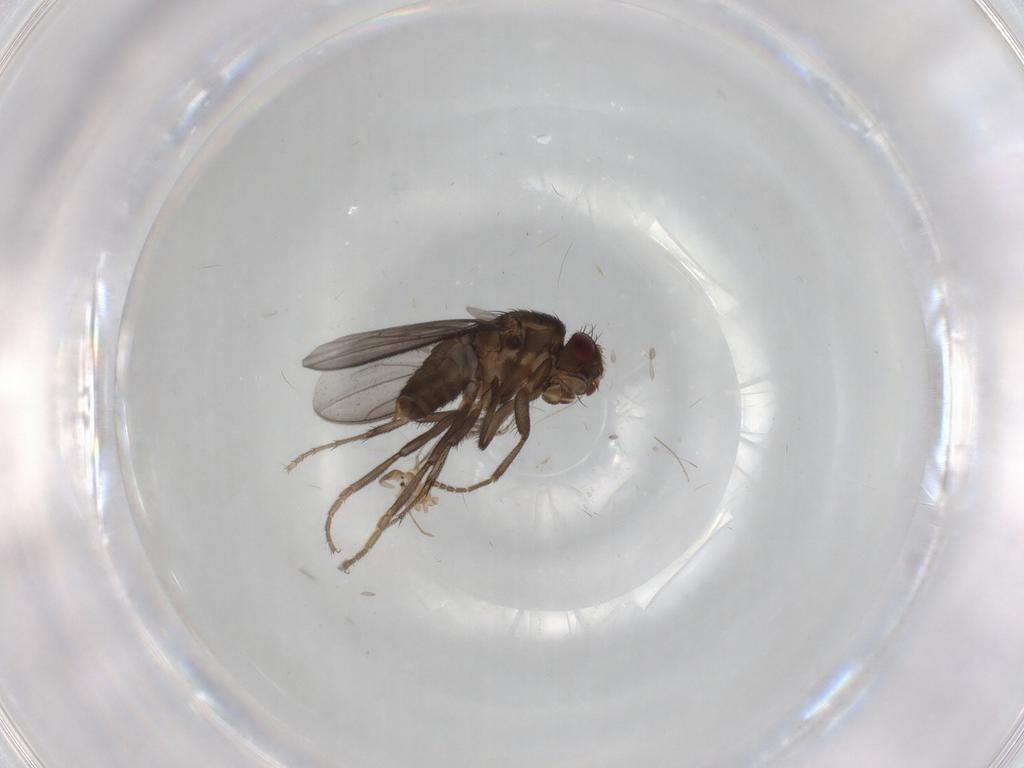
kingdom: Animalia
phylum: Arthropoda
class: Insecta
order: Diptera
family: Sphaeroceridae
